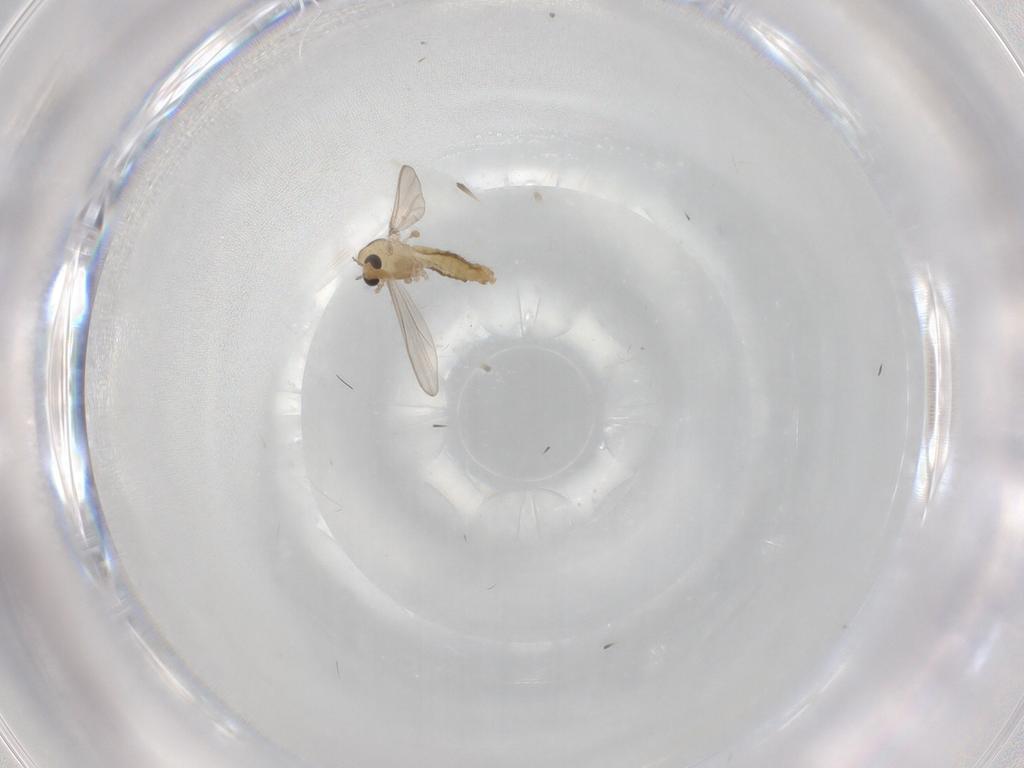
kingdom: Animalia
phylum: Arthropoda
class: Insecta
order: Diptera
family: Chironomidae
